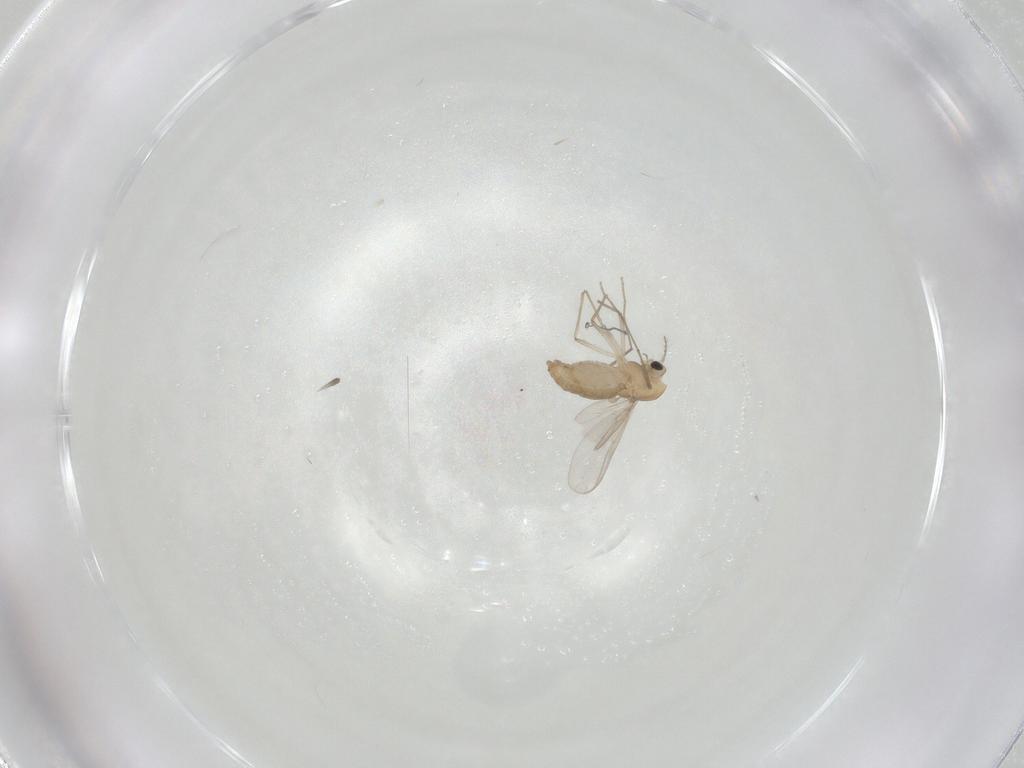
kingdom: Animalia
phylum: Arthropoda
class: Insecta
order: Diptera
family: Chironomidae
